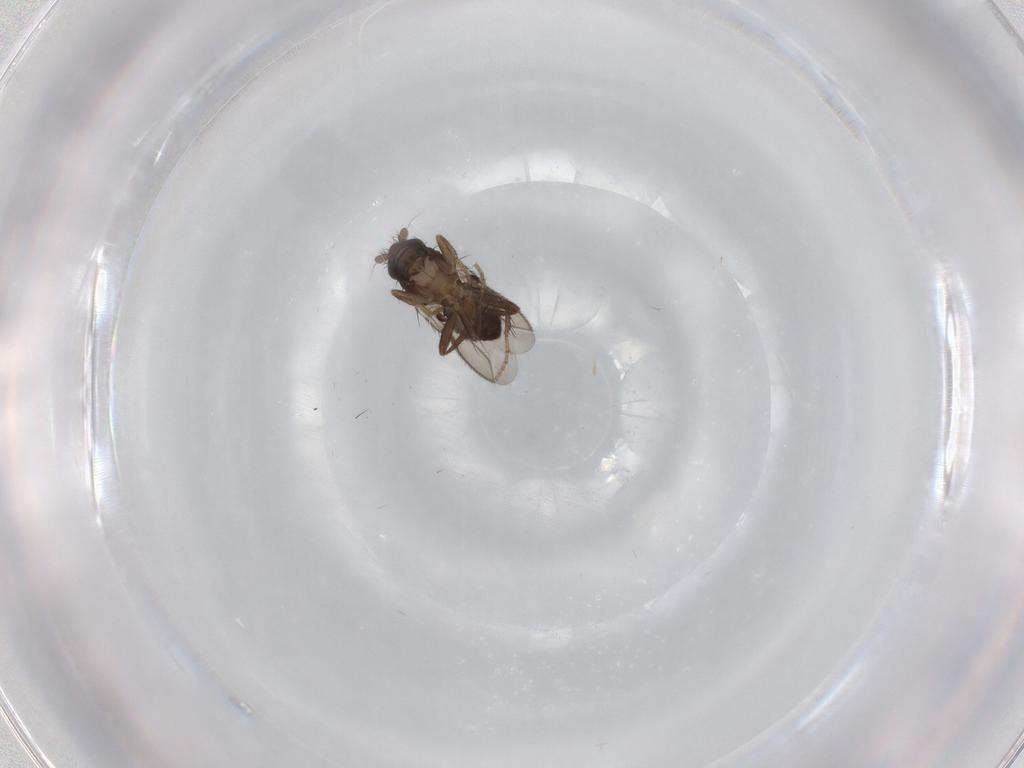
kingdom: Animalia
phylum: Arthropoda
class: Insecta
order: Diptera
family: Sphaeroceridae
